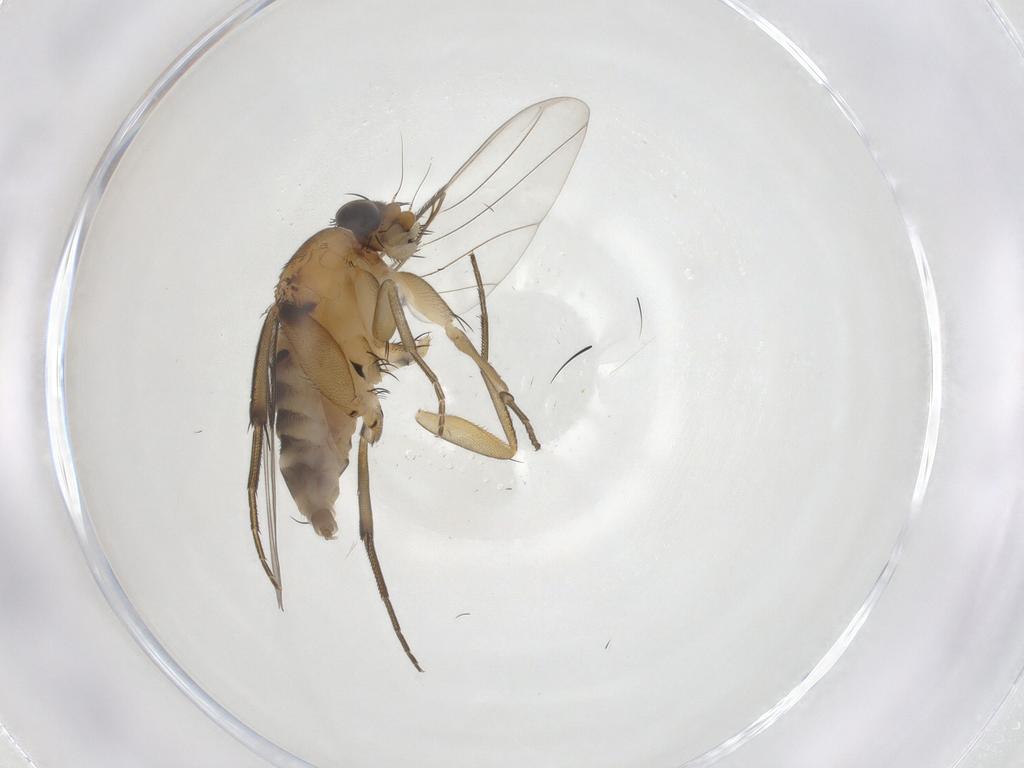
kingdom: Animalia
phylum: Arthropoda
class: Insecta
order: Diptera
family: Phoridae
